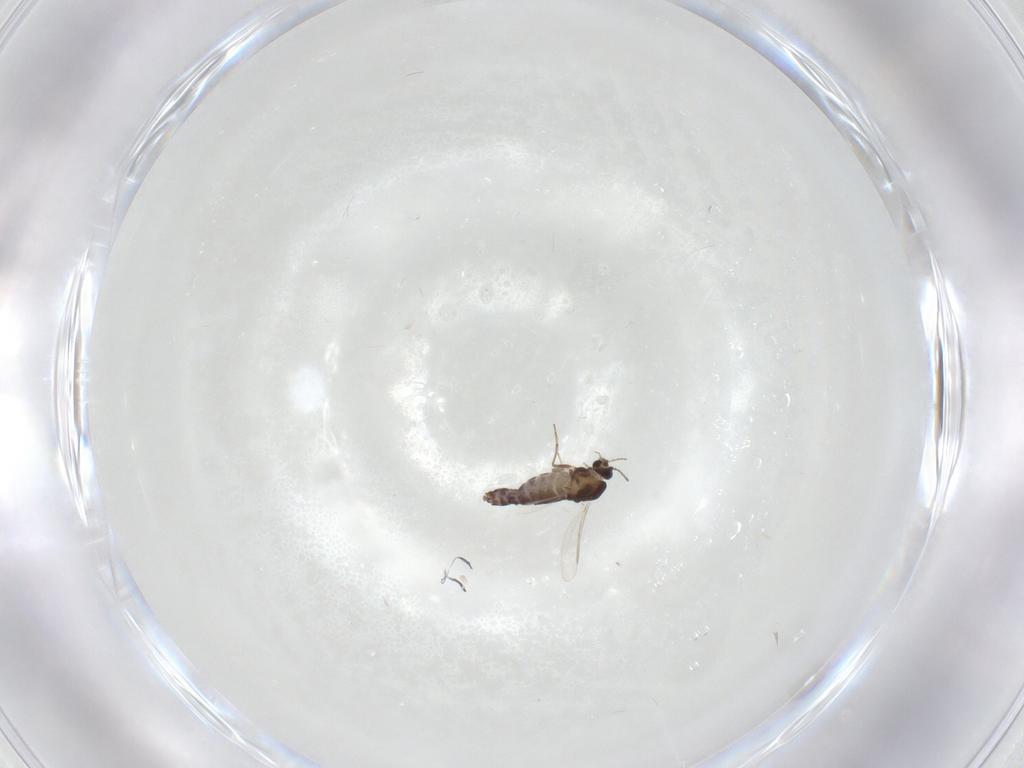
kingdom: Animalia
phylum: Arthropoda
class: Insecta
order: Diptera
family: Chironomidae
